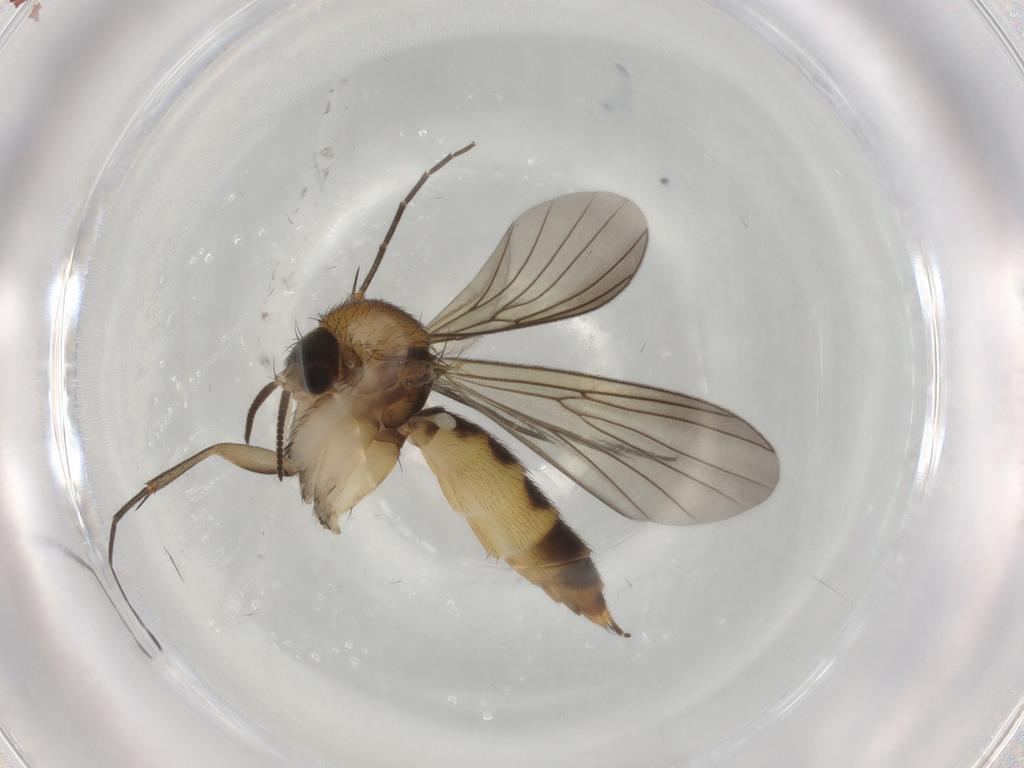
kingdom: Animalia
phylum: Arthropoda
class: Insecta
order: Diptera
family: Mycetophilidae
